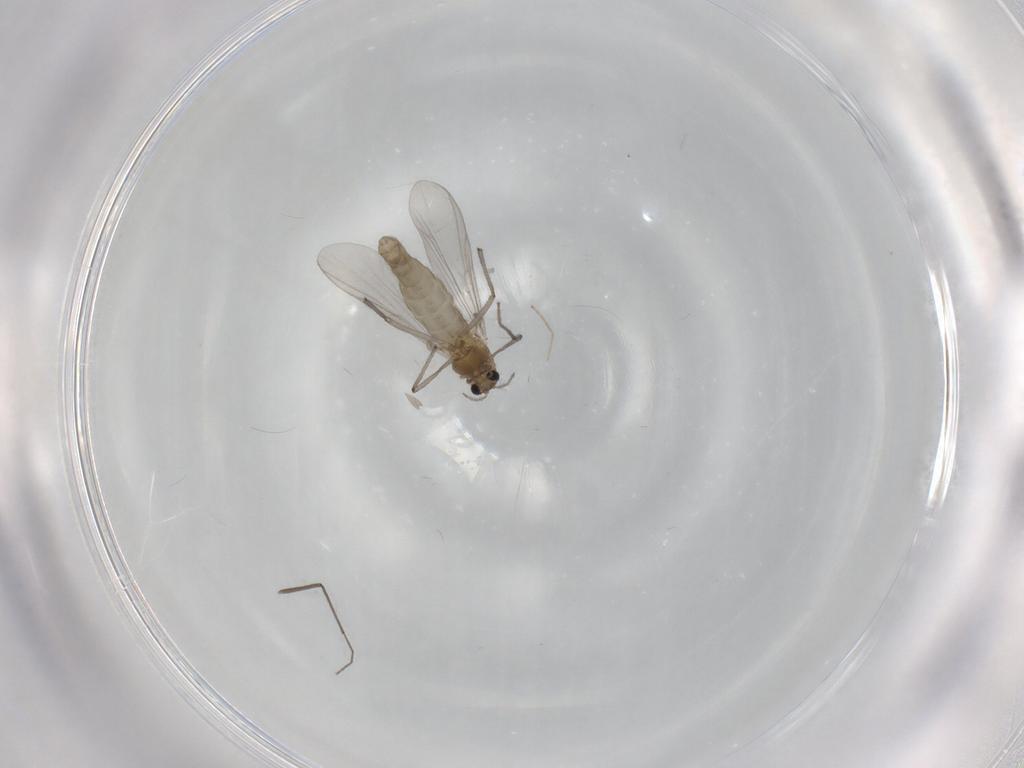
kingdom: Animalia
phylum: Arthropoda
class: Insecta
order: Diptera
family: Chironomidae
